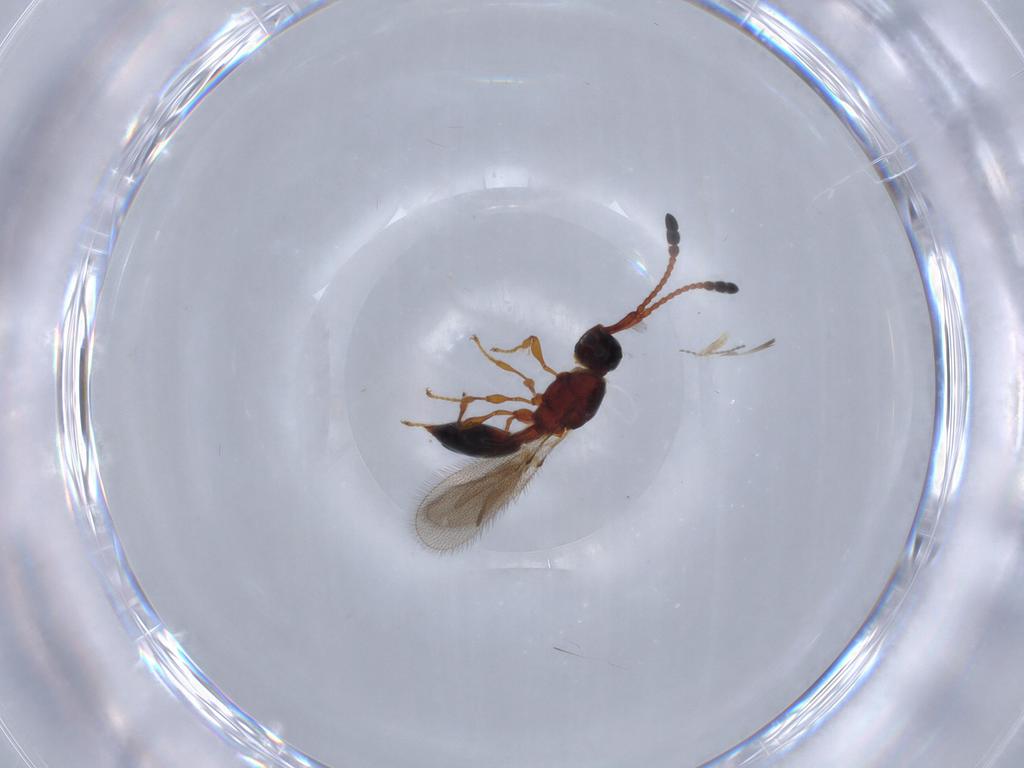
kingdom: Animalia
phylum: Arthropoda
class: Insecta
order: Hymenoptera
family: Diapriidae
